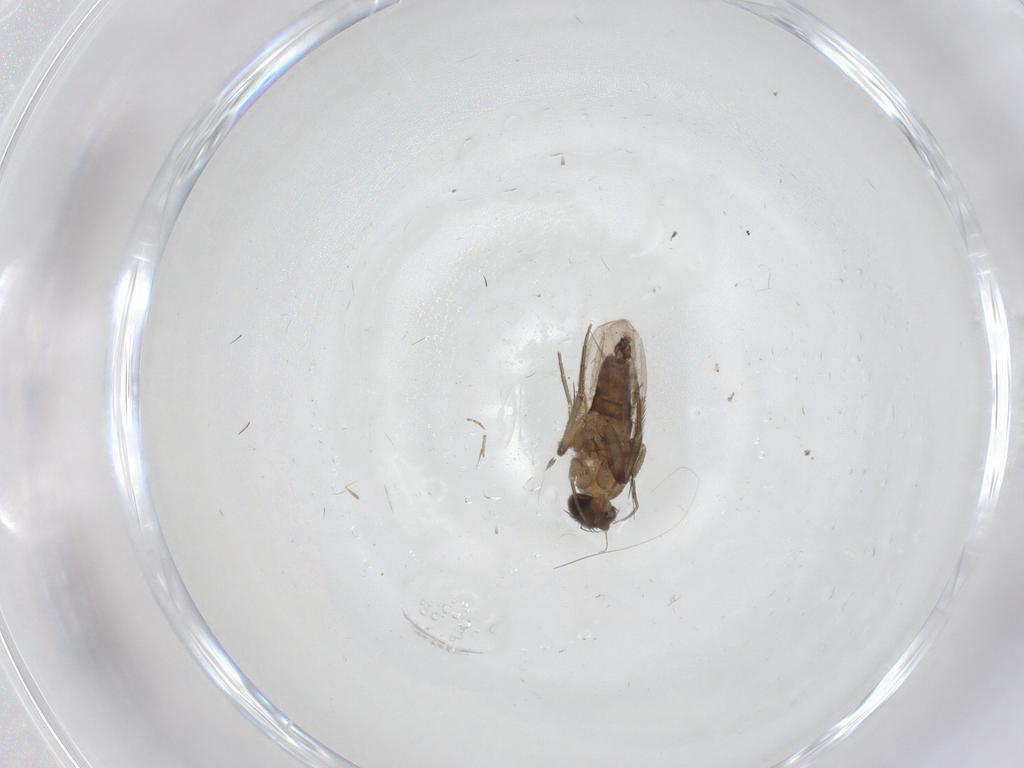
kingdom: Animalia
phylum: Arthropoda
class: Insecta
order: Diptera
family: Phoridae
